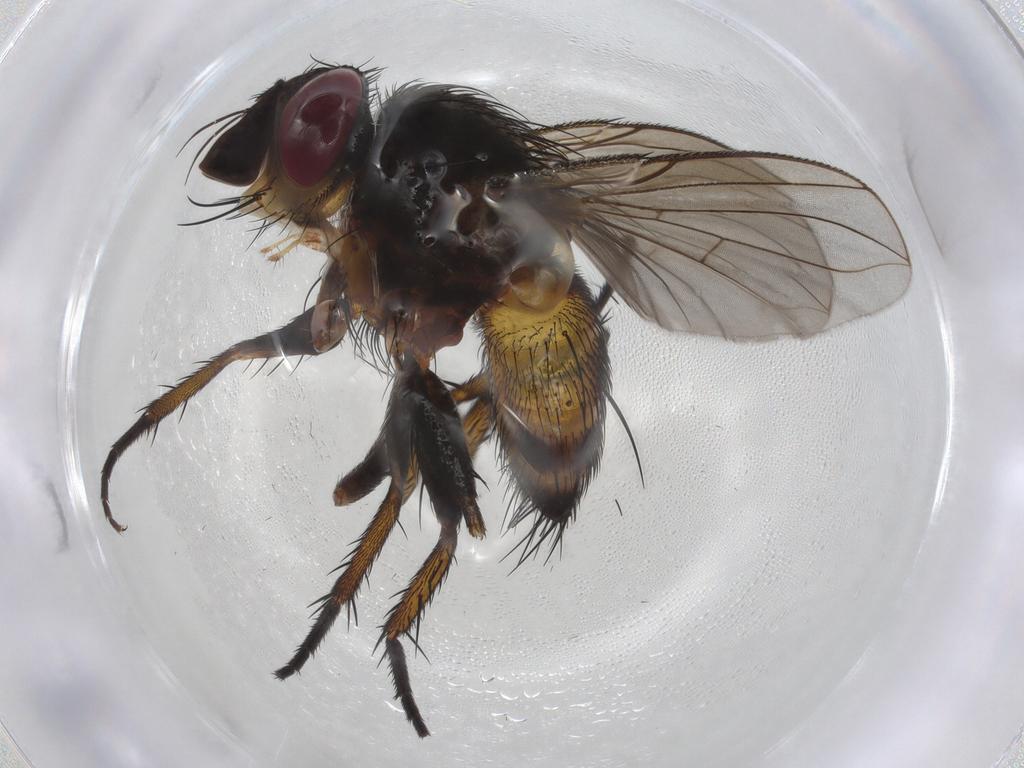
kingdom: Animalia
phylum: Arthropoda
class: Insecta
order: Diptera
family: Tachinidae
